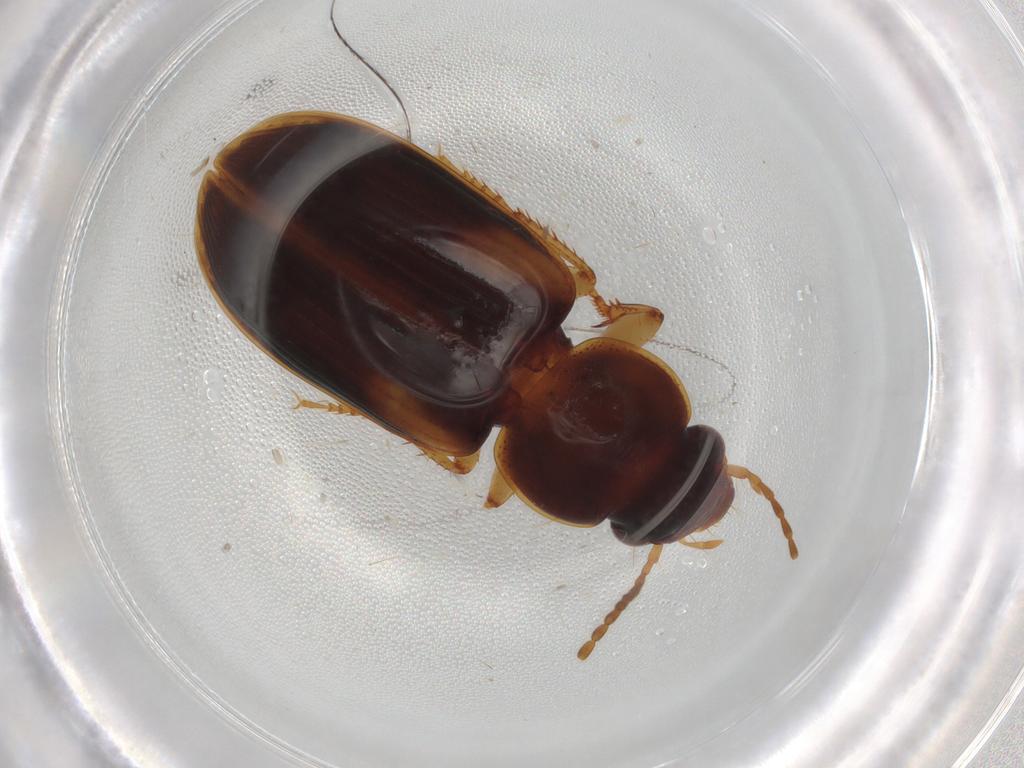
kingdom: Animalia
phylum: Arthropoda
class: Insecta
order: Coleoptera
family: Carabidae
